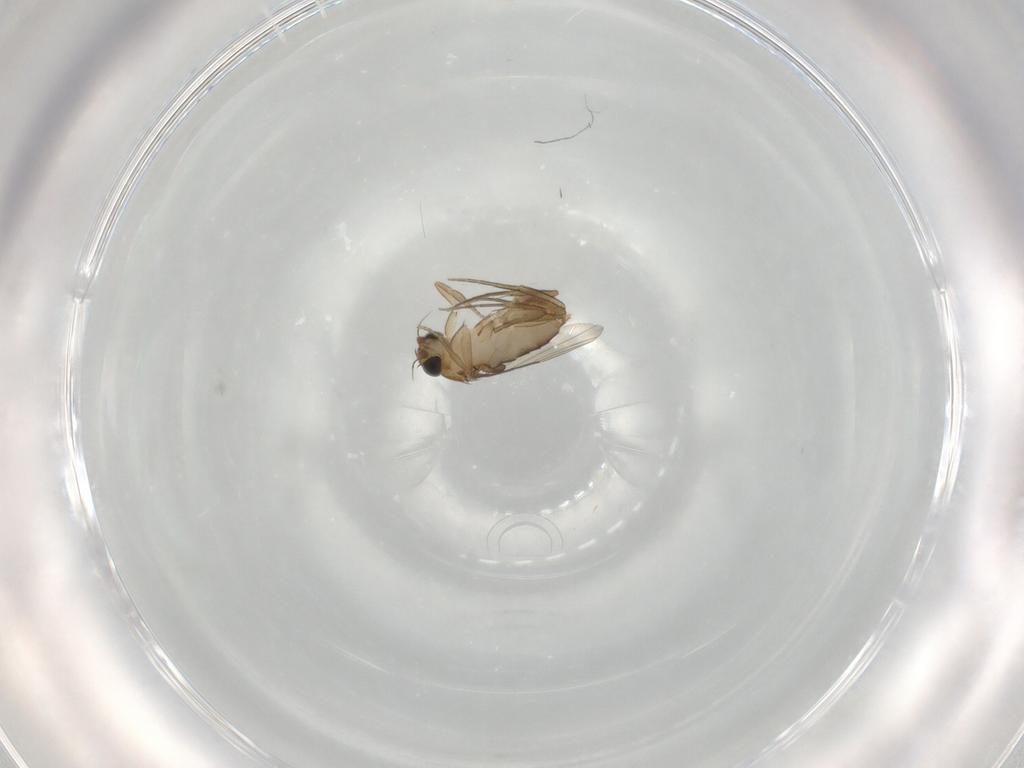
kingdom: Animalia
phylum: Arthropoda
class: Insecta
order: Diptera
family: Phoridae
